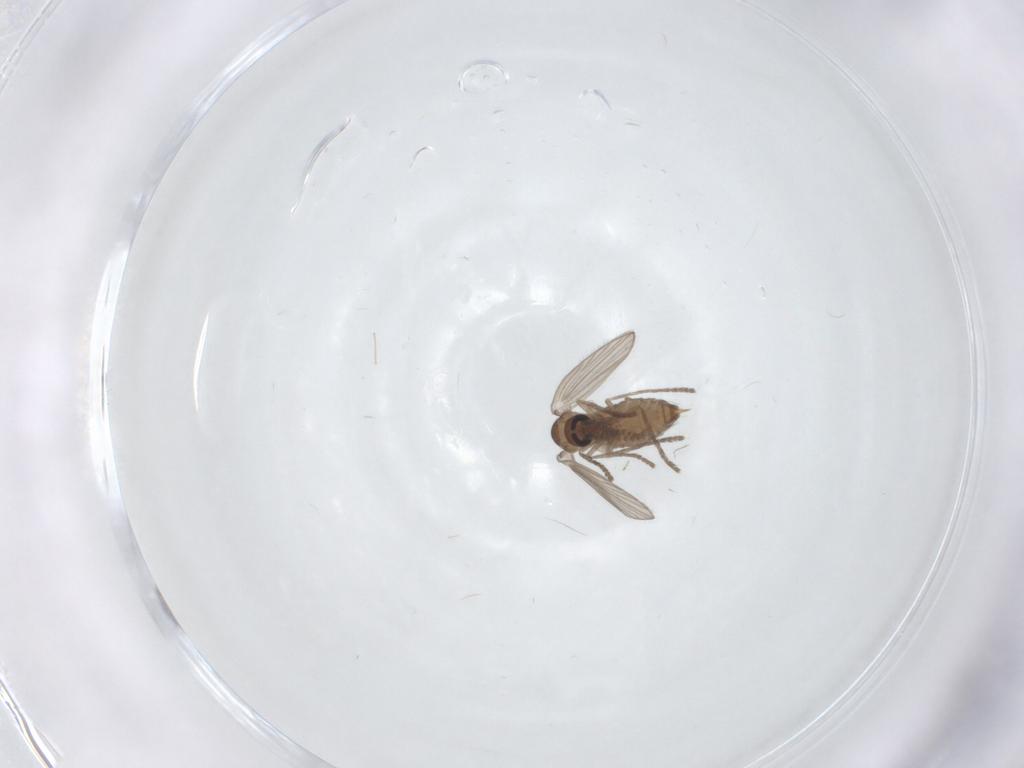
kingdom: Animalia
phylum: Arthropoda
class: Insecta
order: Diptera
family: Psychodidae
